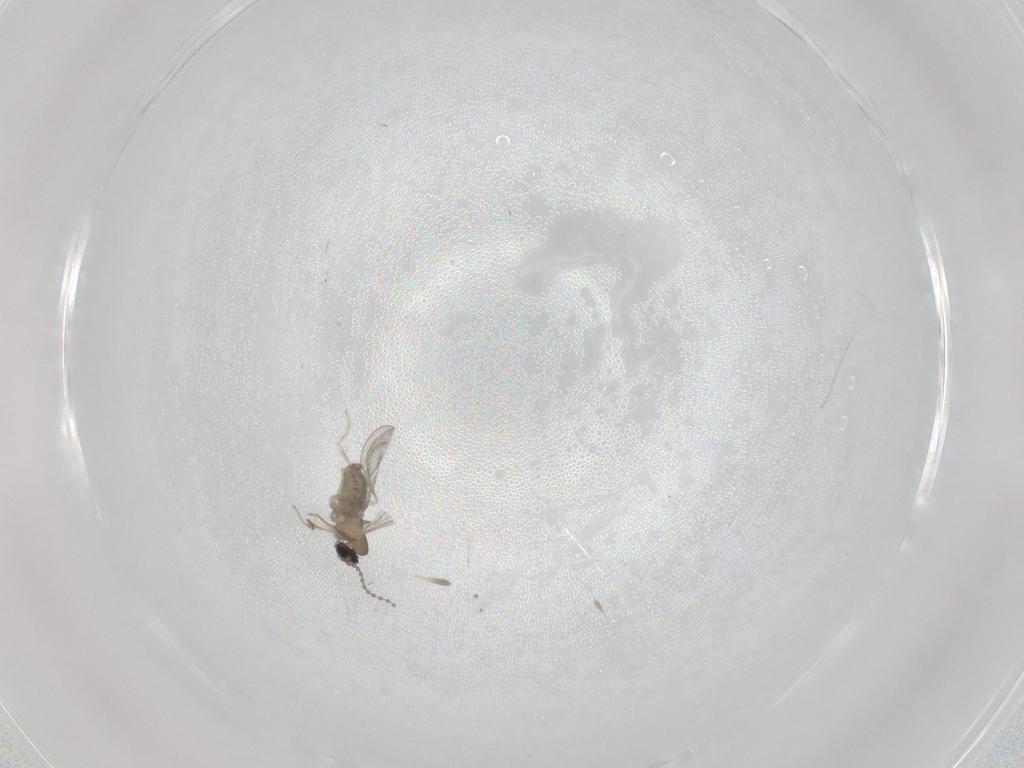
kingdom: Animalia
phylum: Arthropoda
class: Insecta
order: Diptera
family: Cecidomyiidae
